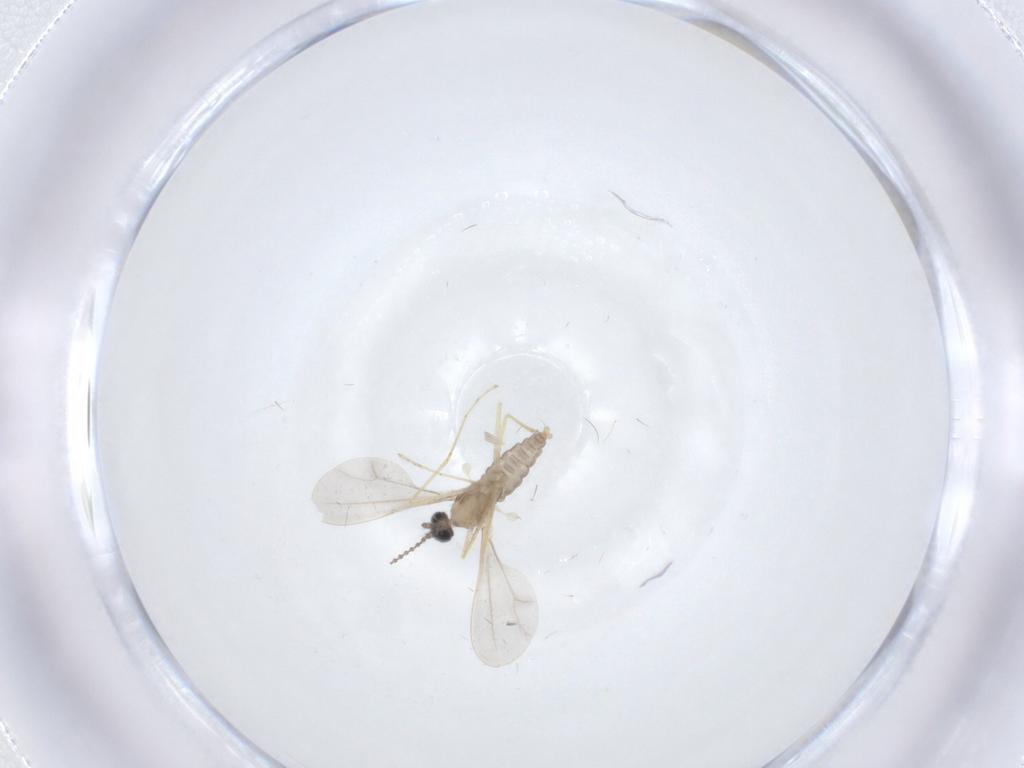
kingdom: Animalia
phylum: Arthropoda
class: Insecta
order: Diptera
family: Cecidomyiidae
